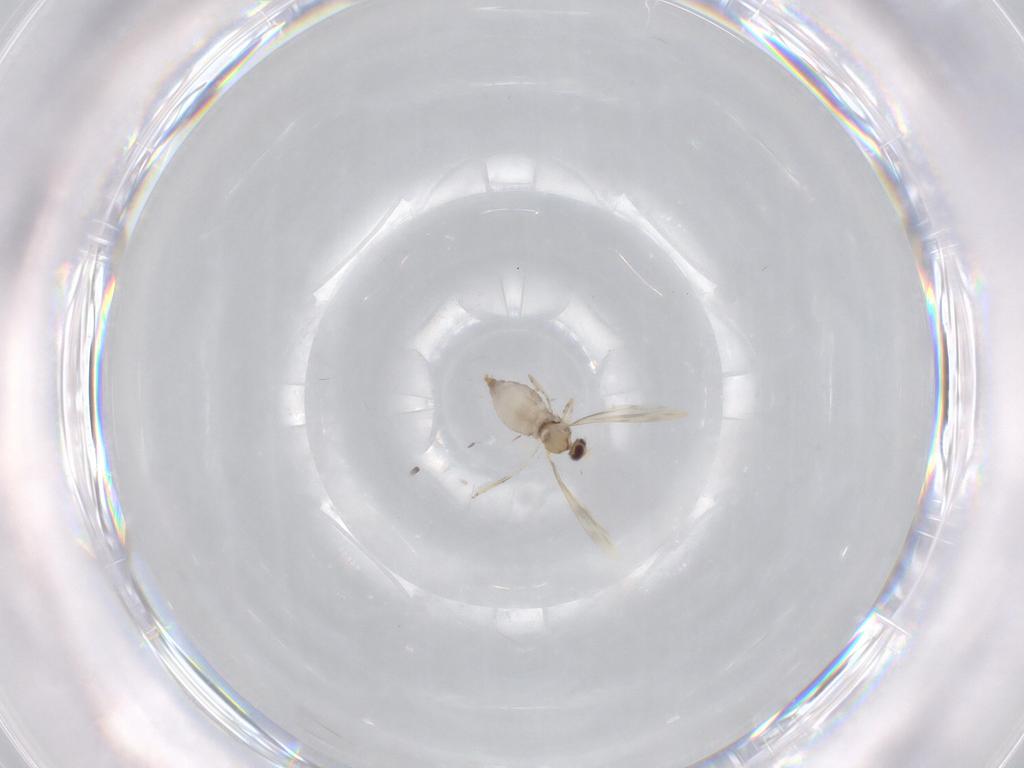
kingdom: Animalia
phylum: Arthropoda
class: Insecta
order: Diptera
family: Cecidomyiidae
